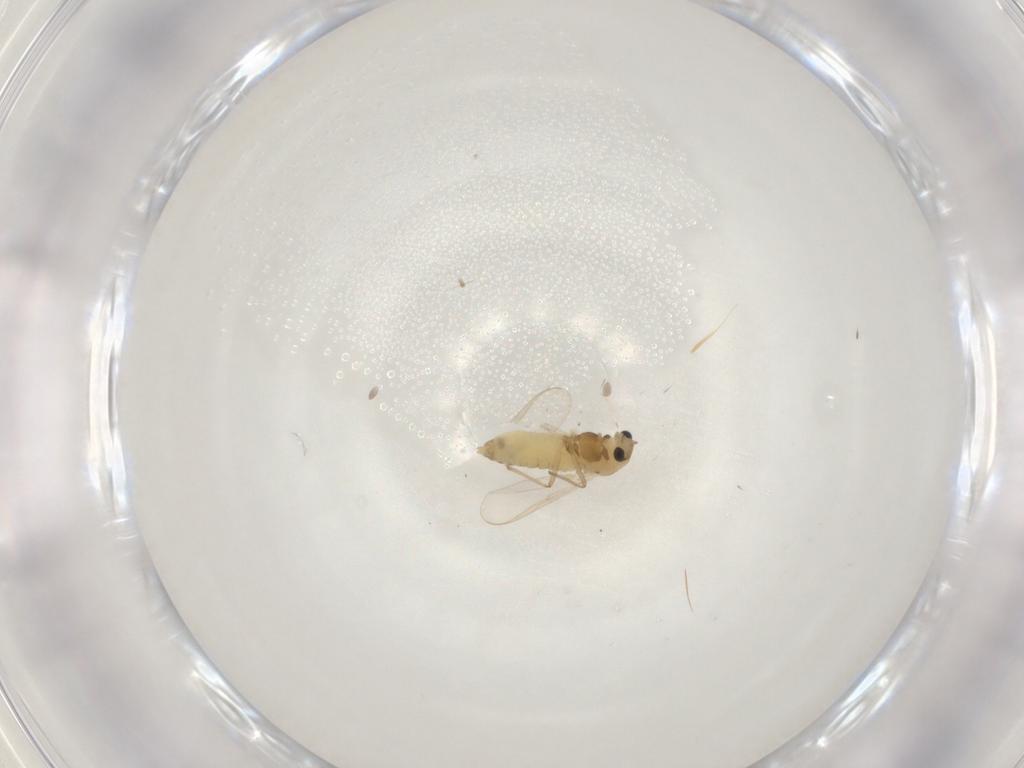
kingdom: Animalia
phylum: Arthropoda
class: Insecta
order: Diptera
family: Chironomidae
